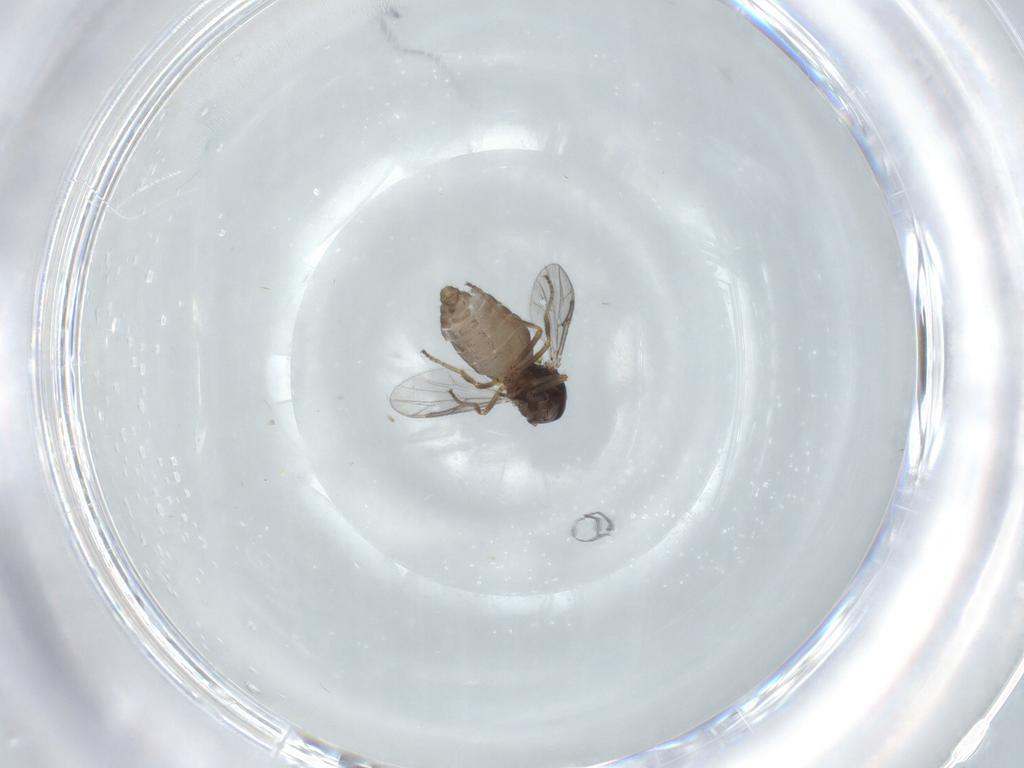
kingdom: Animalia
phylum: Arthropoda
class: Insecta
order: Diptera
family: Ceratopogonidae
